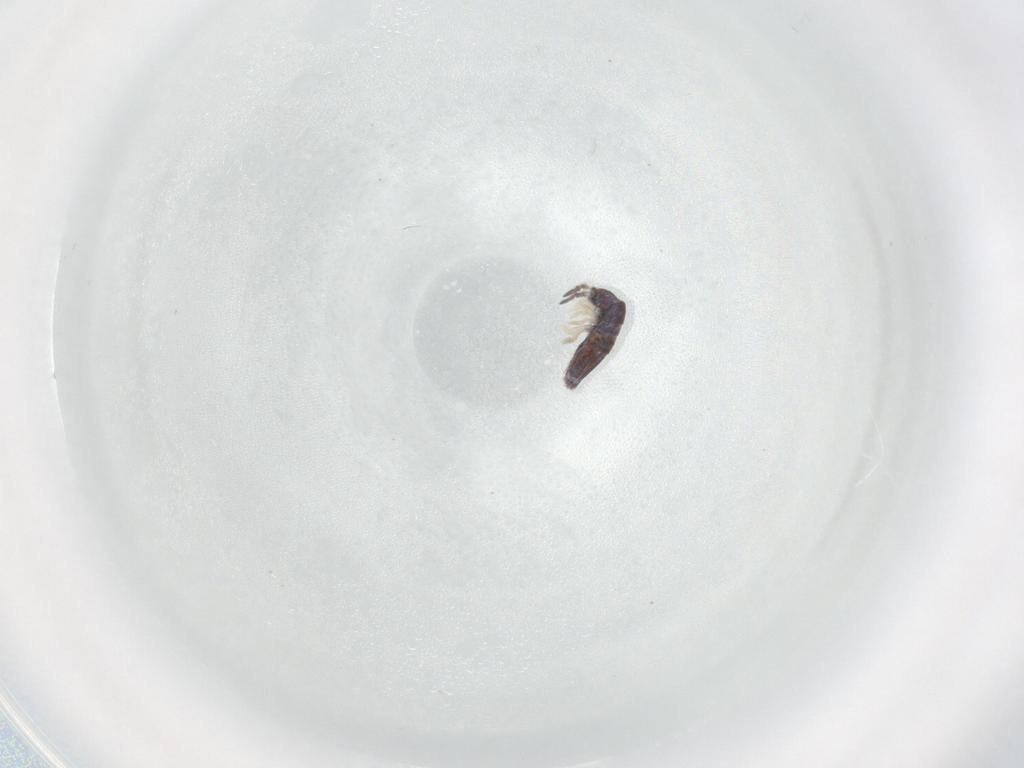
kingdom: Animalia
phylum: Arthropoda
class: Collembola
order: Entomobryomorpha
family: Entomobryidae
